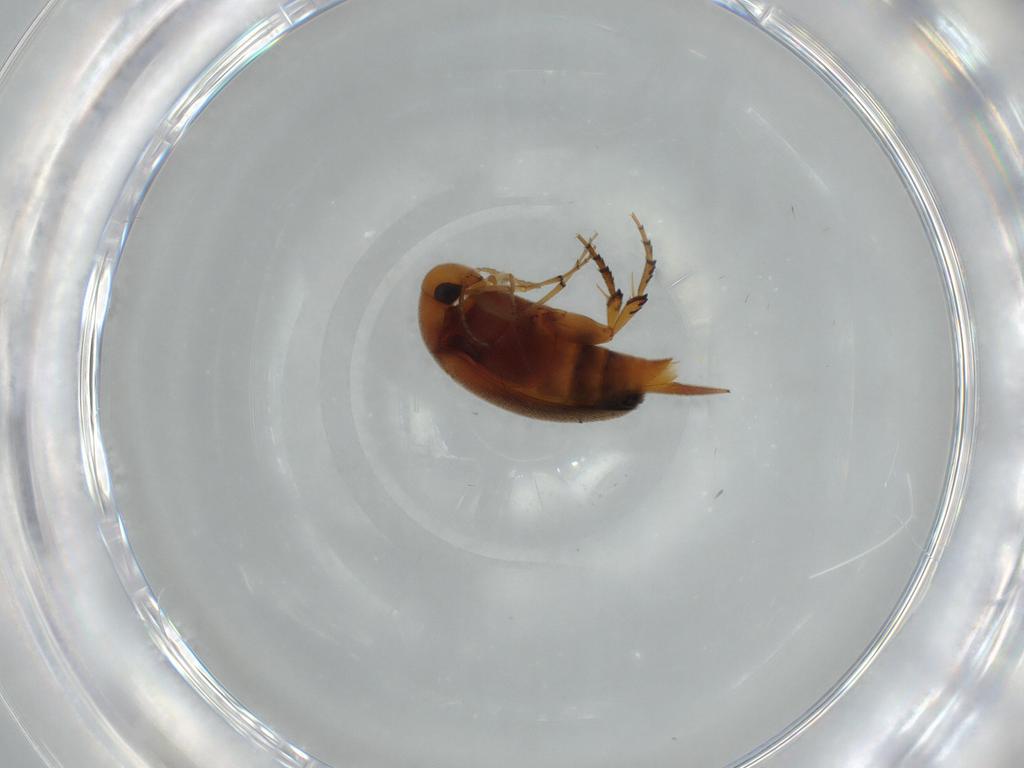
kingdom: Animalia
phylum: Arthropoda
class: Insecta
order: Coleoptera
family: Mordellidae
